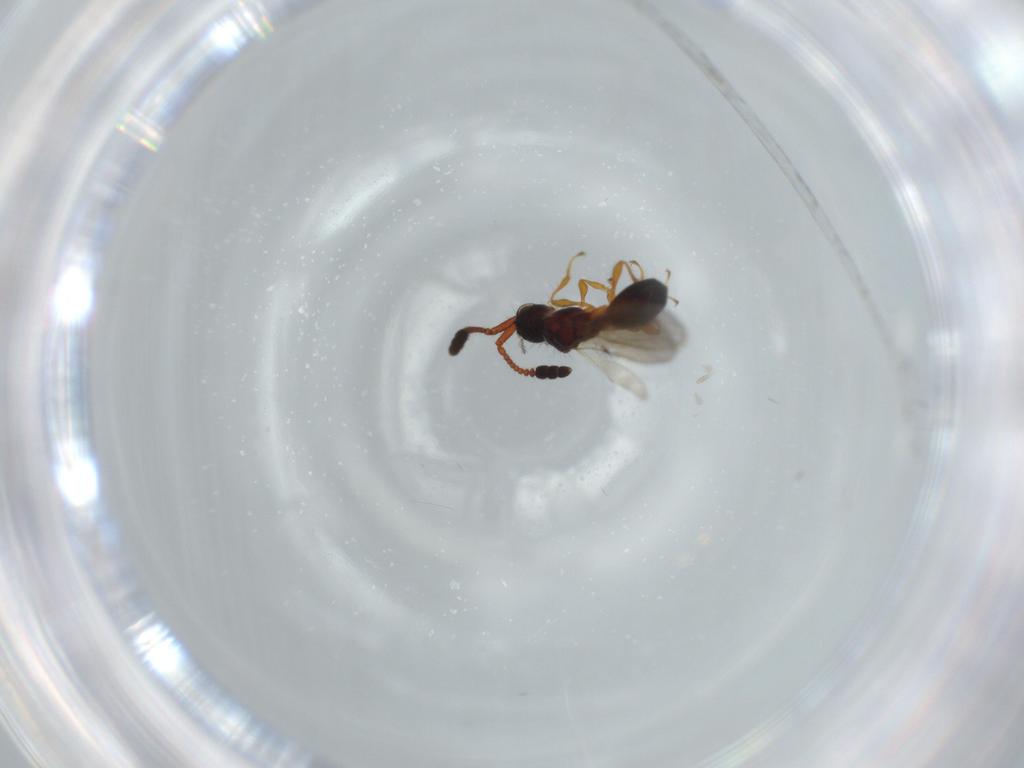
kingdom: Animalia
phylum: Arthropoda
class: Insecta
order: Hymenoptera
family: Diapriidae
